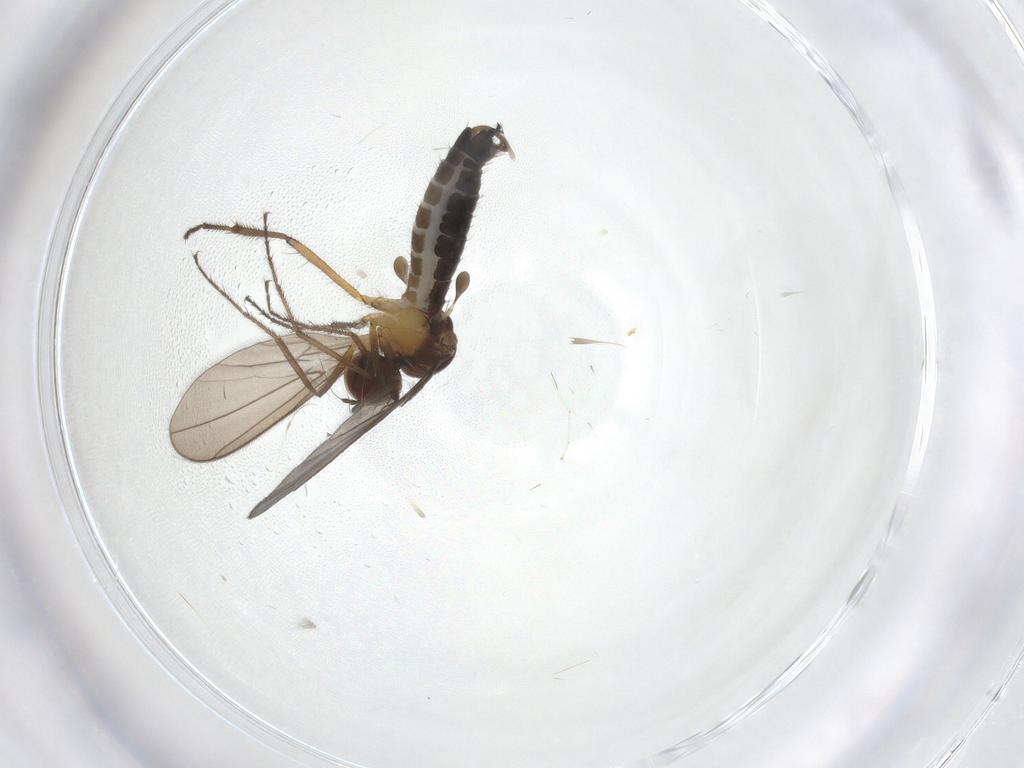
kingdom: Animalia
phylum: Arthropoda
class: Insecta
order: Diptera
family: Hybotidae
